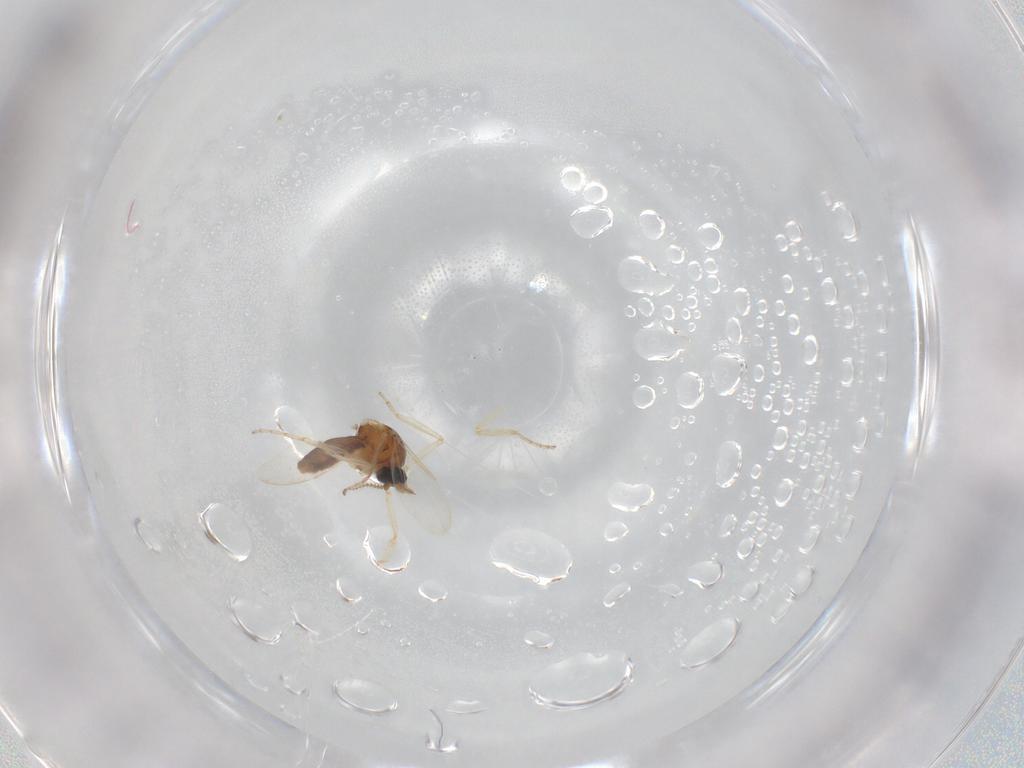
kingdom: Animalia
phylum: Arthropoda
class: Insecta
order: Diptera
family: Ceratopogonidae
